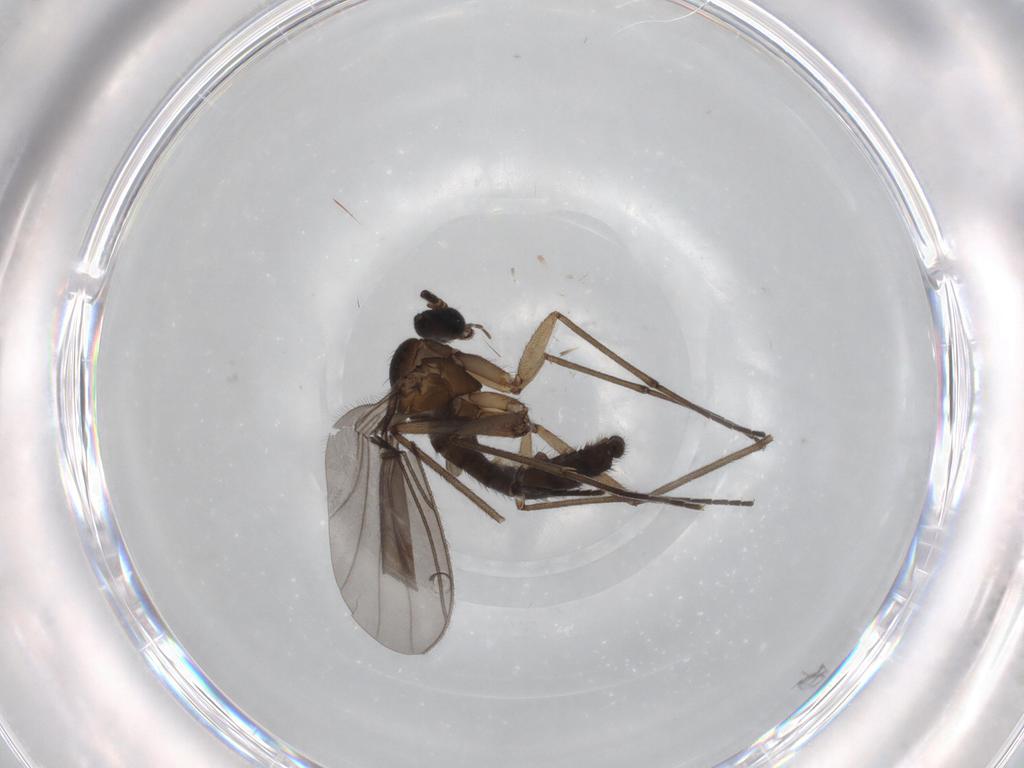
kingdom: Animalia
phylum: Arthropoda
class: Insecta
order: Diptera
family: Sciaridae
